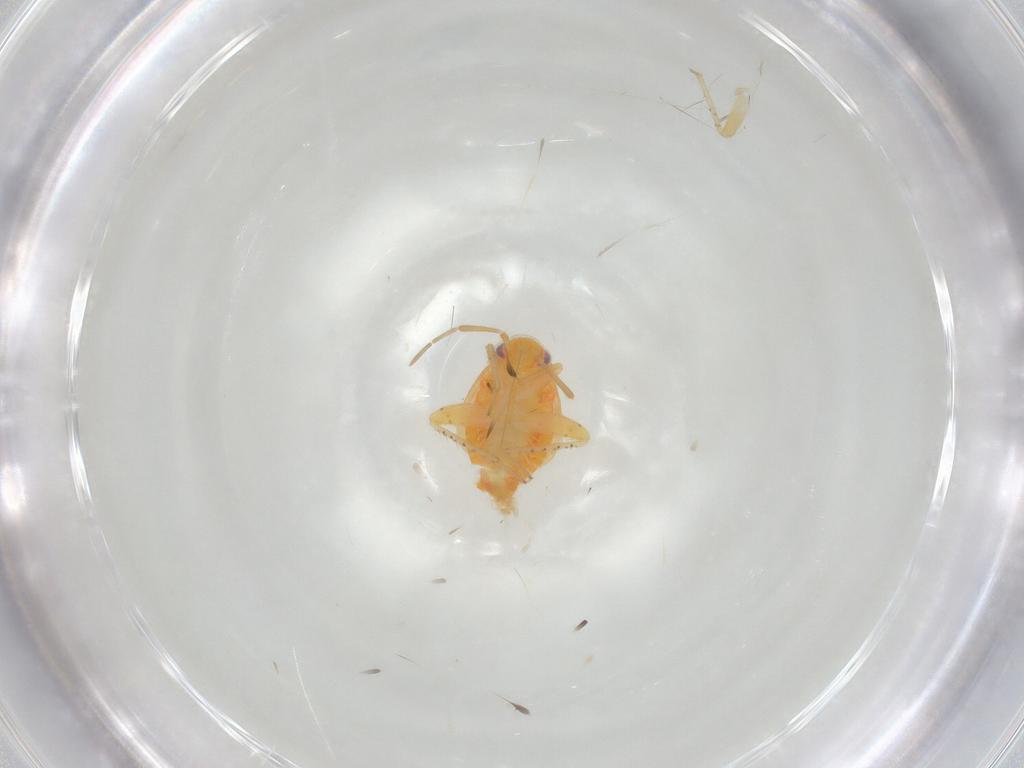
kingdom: Animalia
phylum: Arthropoda
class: Insecta
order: Hemiptera
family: Miridae
